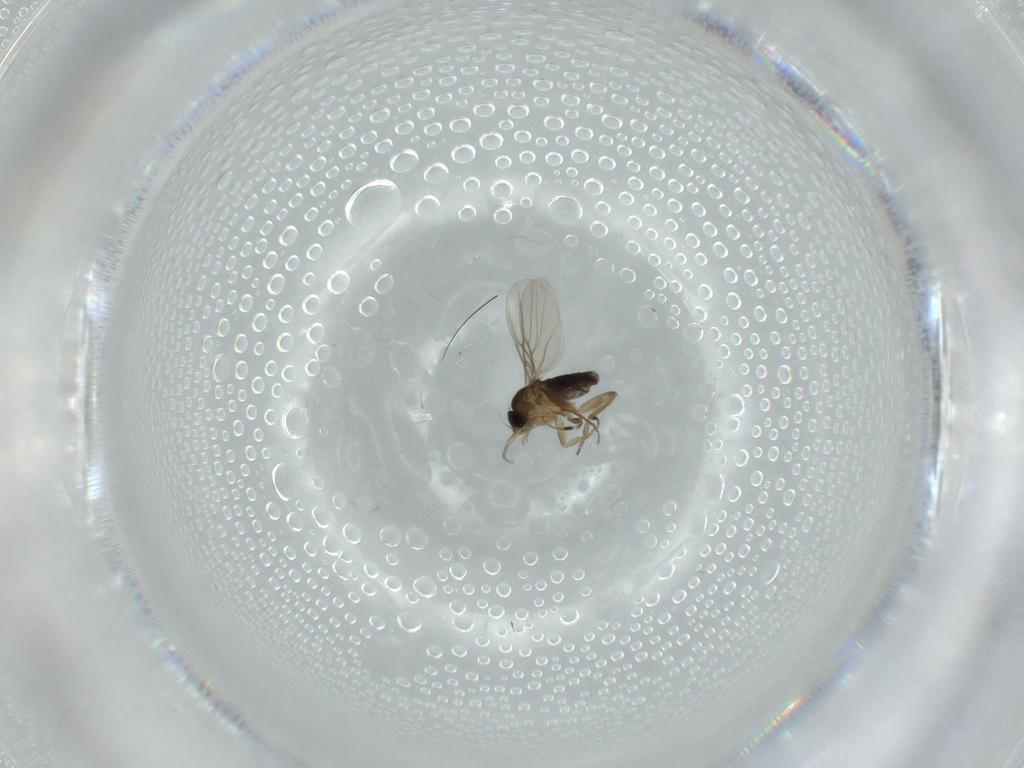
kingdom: Animalia
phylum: Arthropoda
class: Insecta
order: Diptera
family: Phoridae
